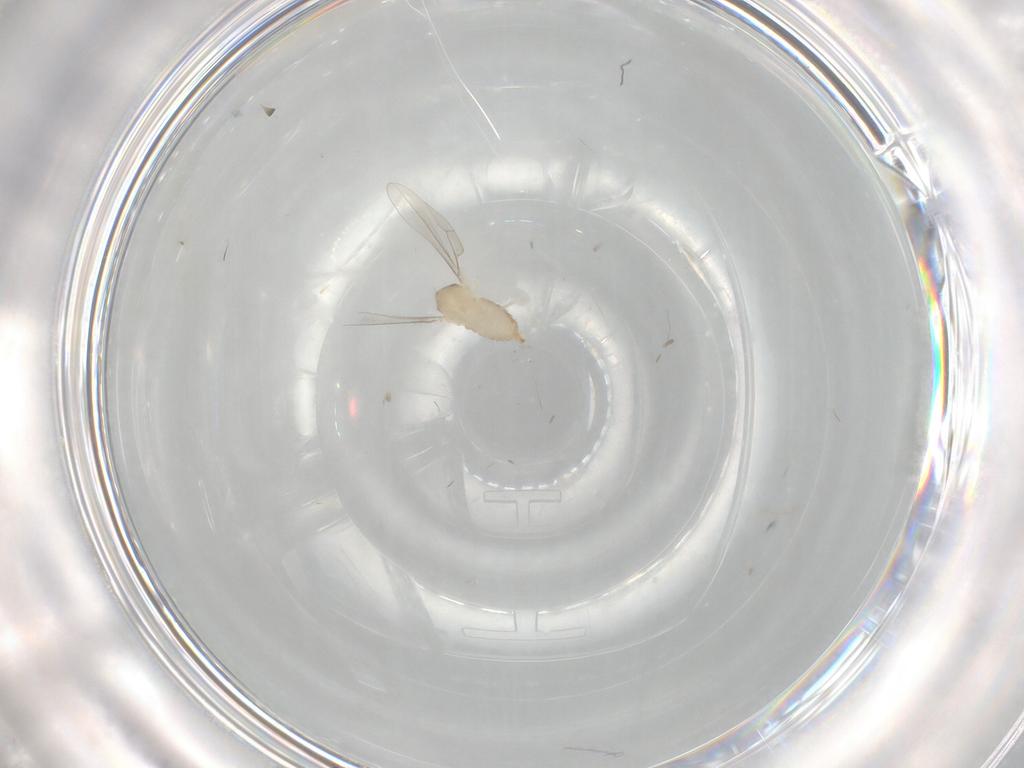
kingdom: Animalia
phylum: Arthropoda
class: Insecta
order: Diptera
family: Cecidomyiidae
